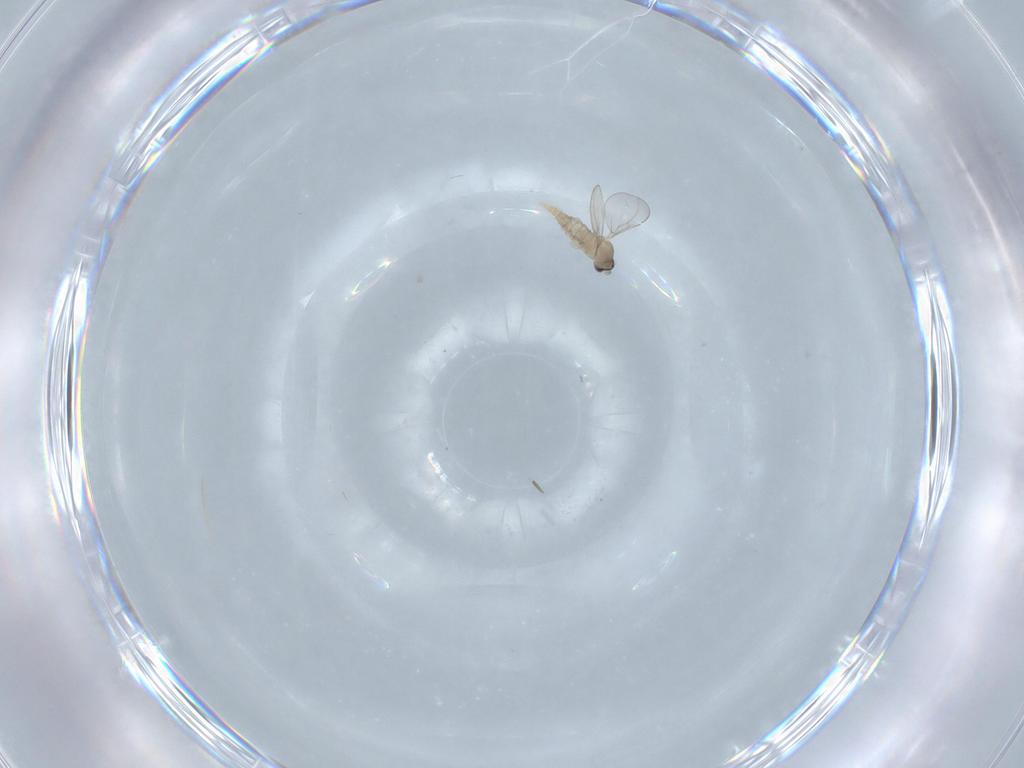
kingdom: Animalia
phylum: Arthropoda
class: Insecta
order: Diptera
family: Cecidomyiidae
